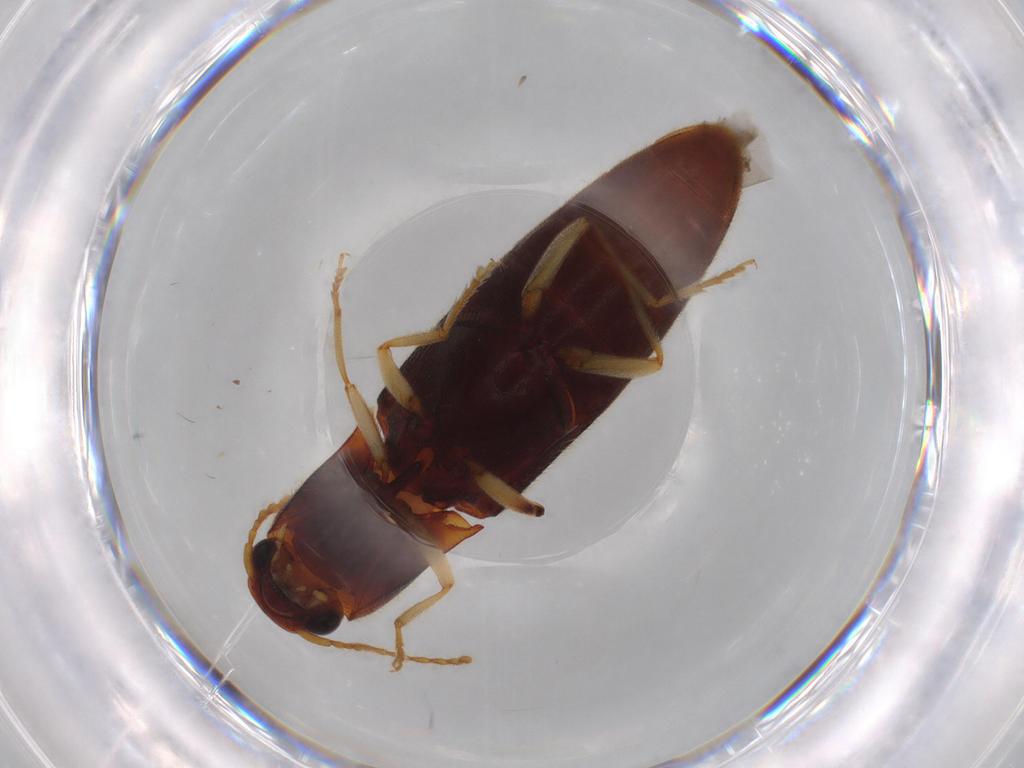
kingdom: Animalia
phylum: Arthropoda
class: Insecta
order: Coleoptera
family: Elateridae
